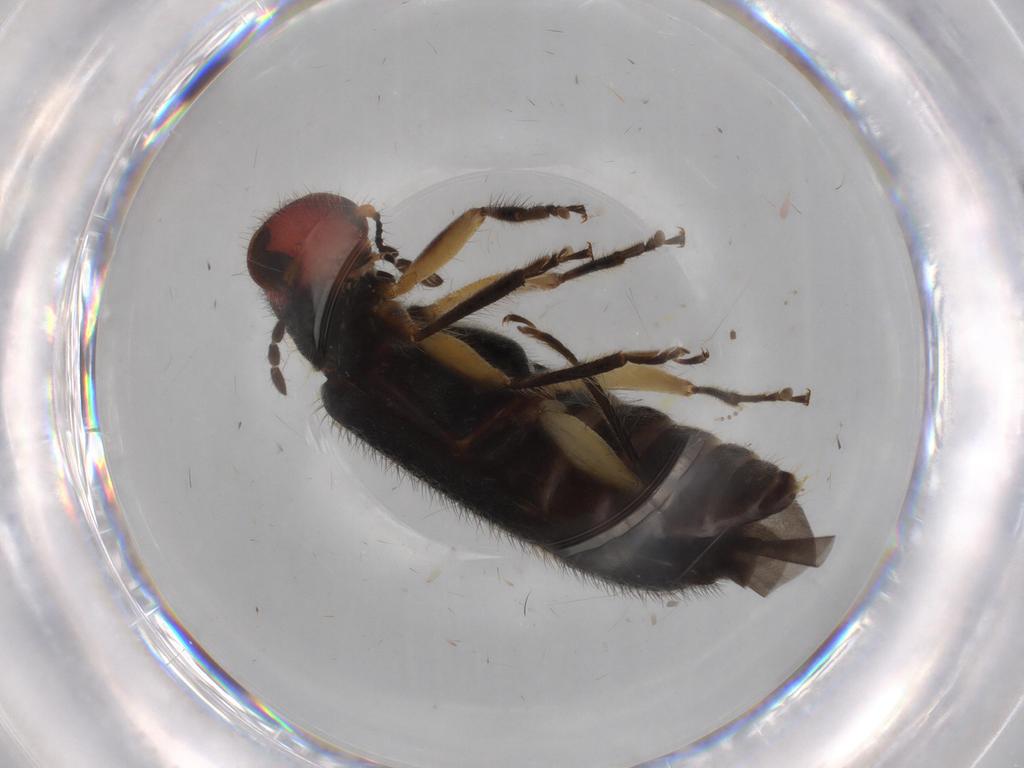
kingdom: Animalia
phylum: Arthropoda
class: Insecta
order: Coleoptera
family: Cleridae
